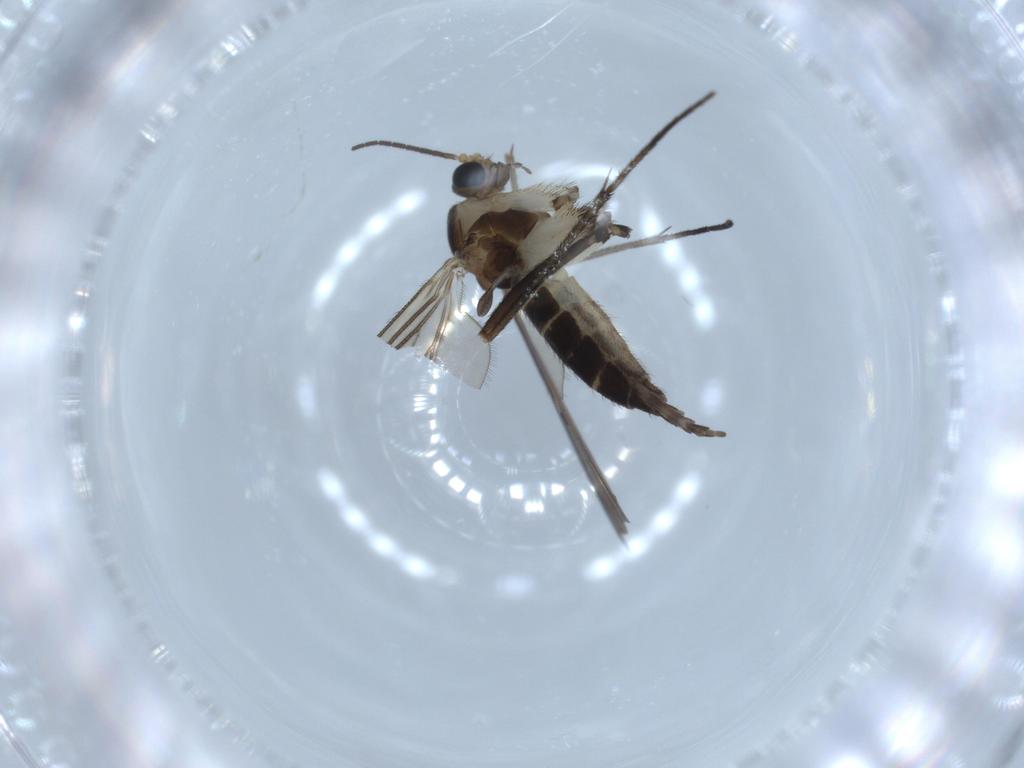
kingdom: Animalia
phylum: Arthropoda
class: Insecta
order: Diptera
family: Sciaridae
